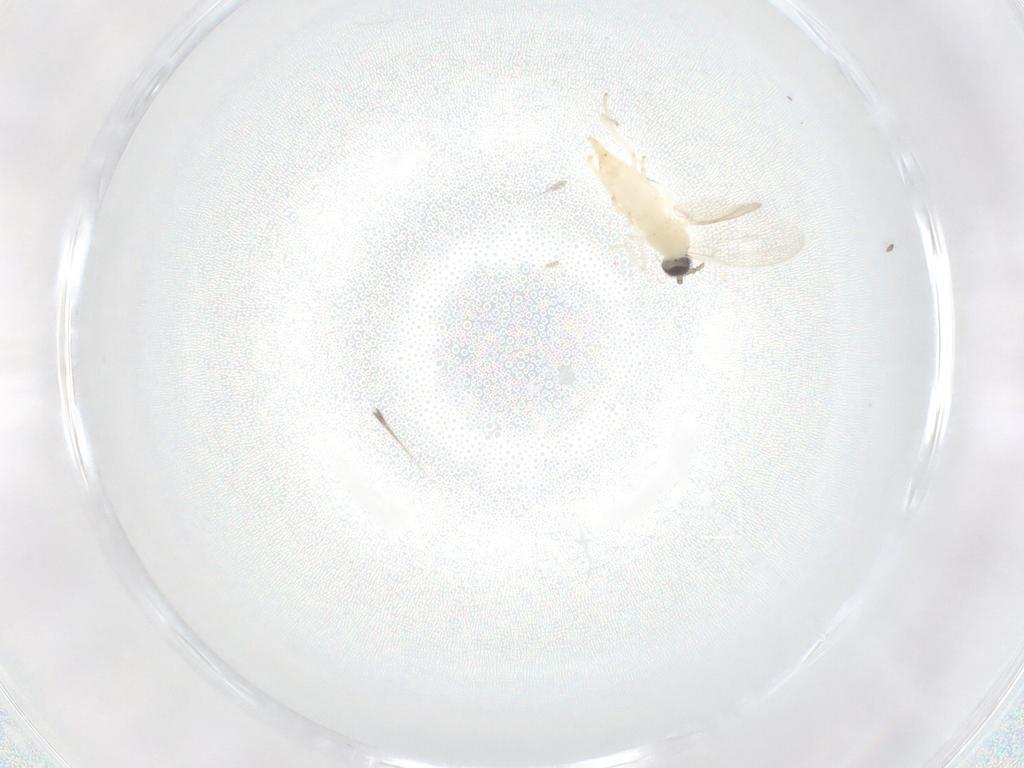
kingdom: Animalia
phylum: Arthropoda
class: Insecta
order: Diptera
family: Cecidomyiidae
